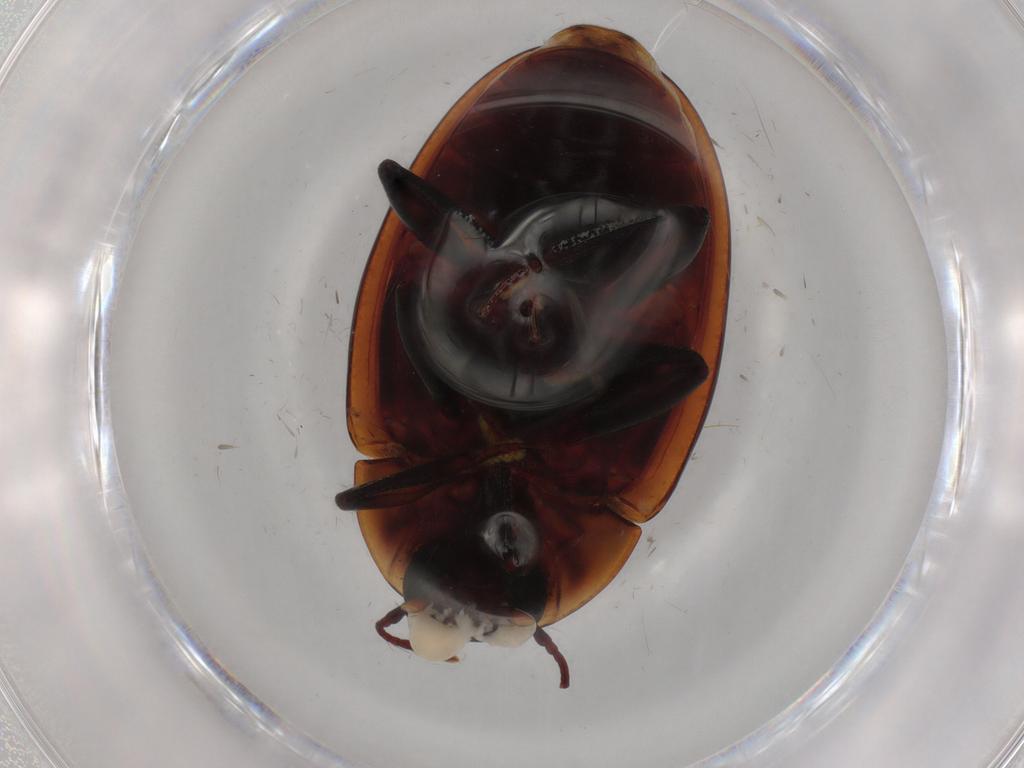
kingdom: Animalia
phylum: Arthropoda
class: Insecta
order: Coleoptera
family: Zopheridae
